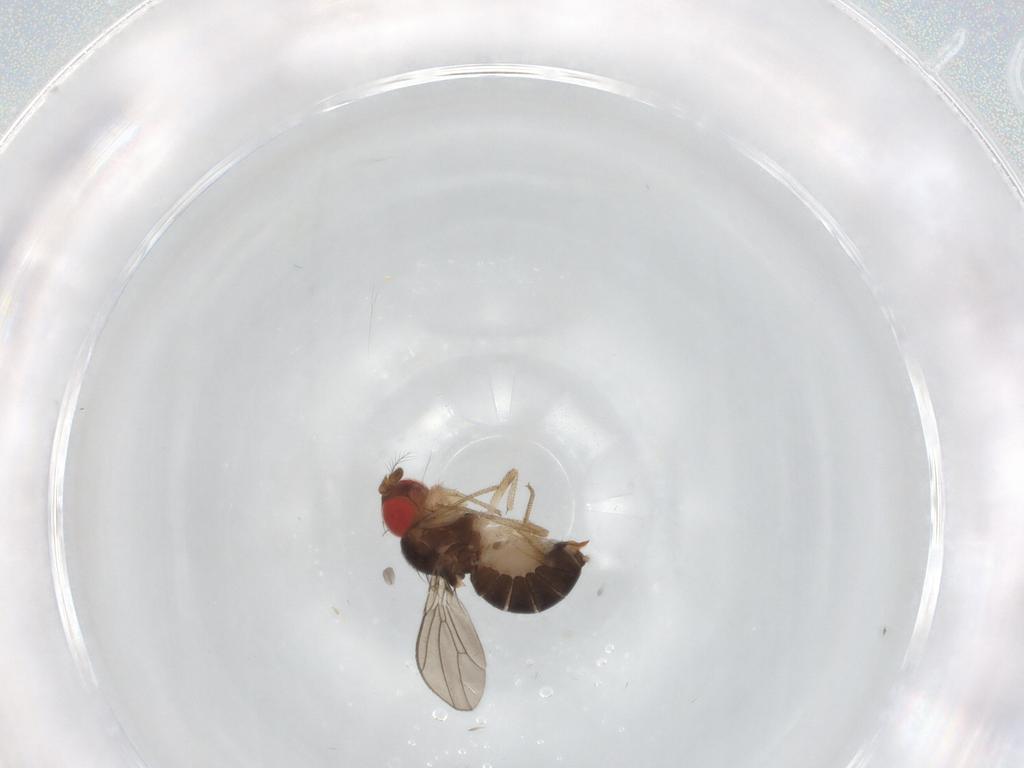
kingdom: Animalia
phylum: Arthropoda
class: Insecta
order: Diptera
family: Drosophilidae
